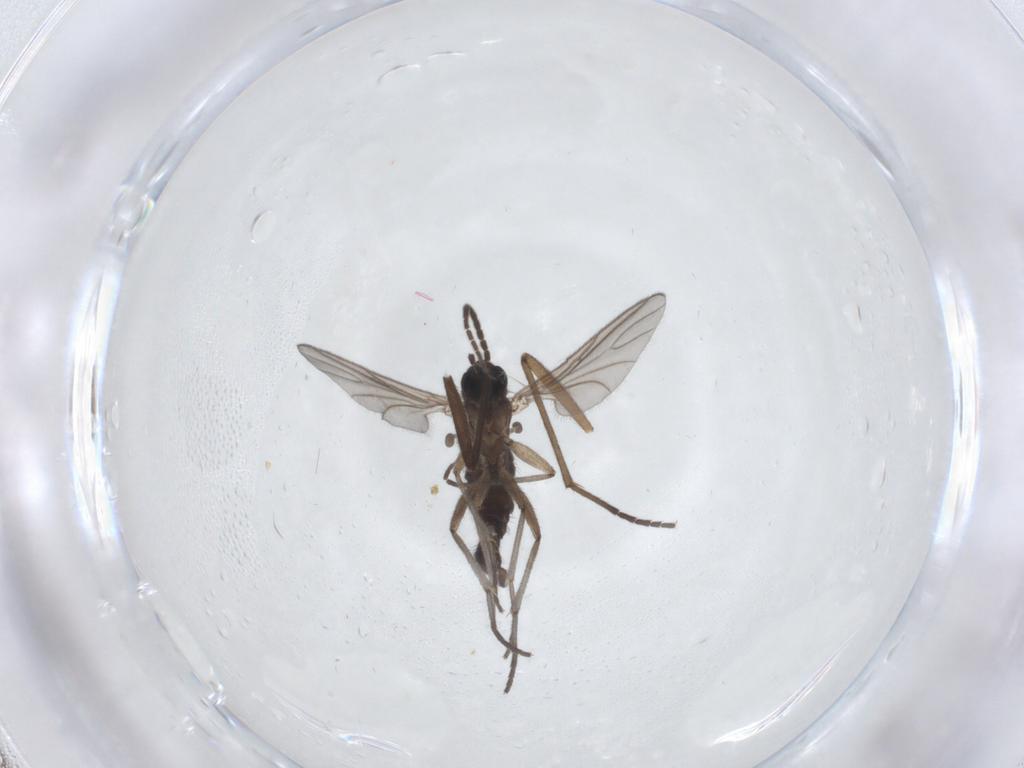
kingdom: Animalia
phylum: Arthropoda
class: Insecta
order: Diptera
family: Sciaridae
